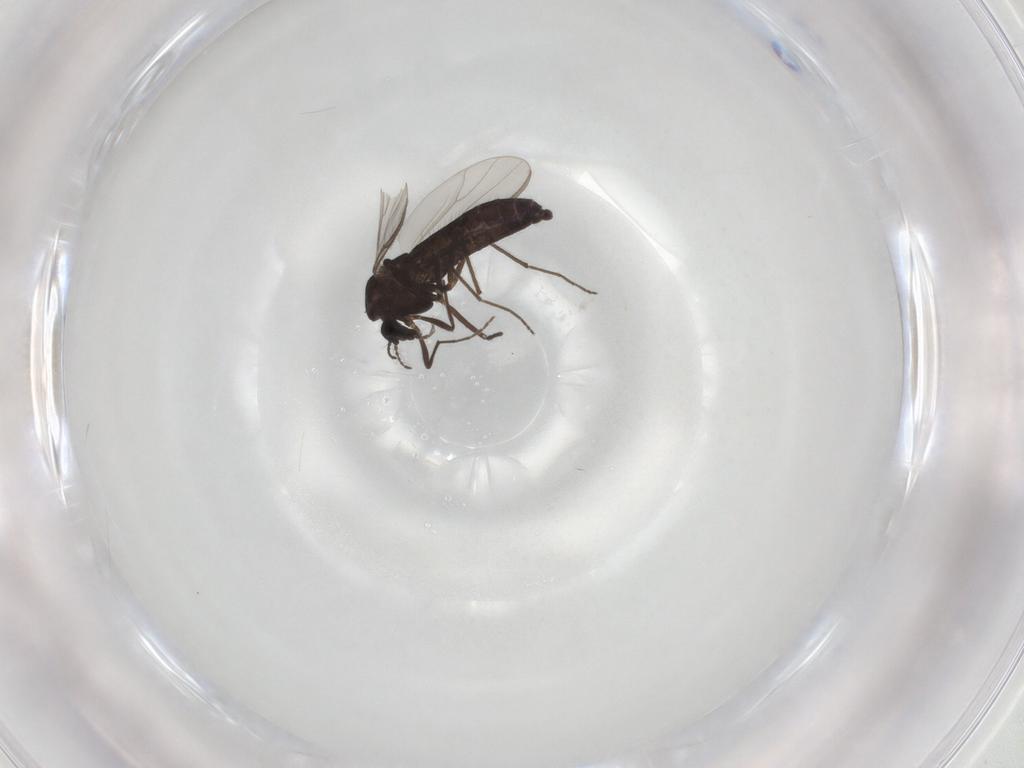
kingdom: Animalia
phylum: Arthropoda
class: Insecta
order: Diptera
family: Chironomidae
